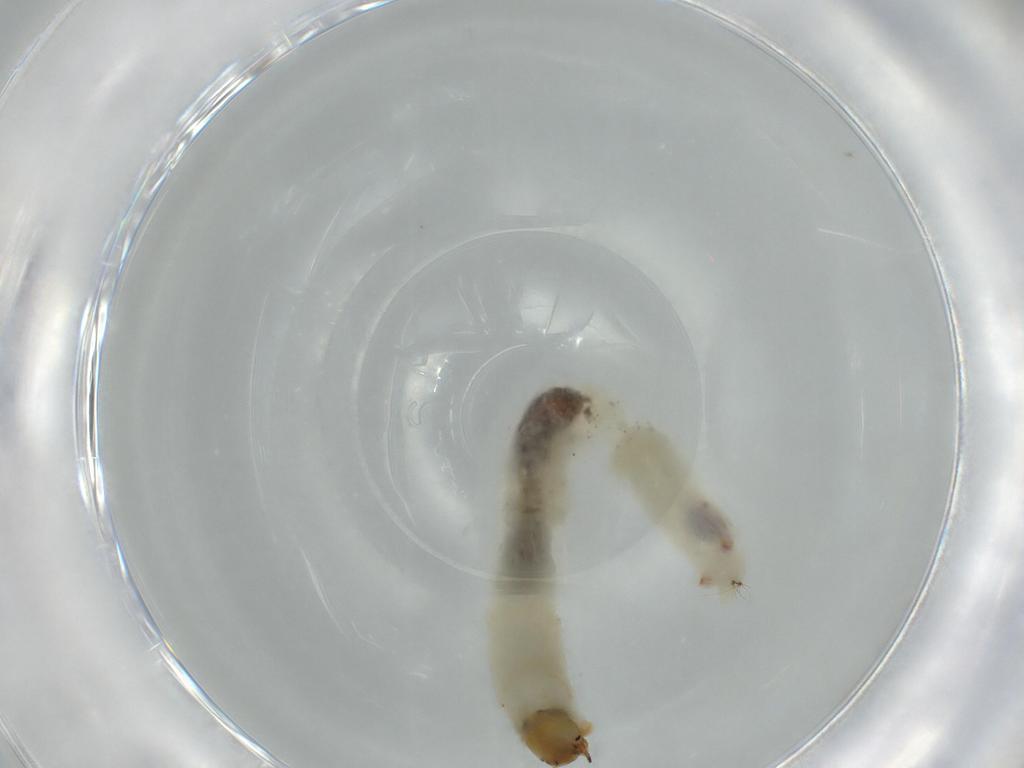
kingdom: Animalia
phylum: Arthropoda
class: Insecta
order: Diptera
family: Chironomidae
